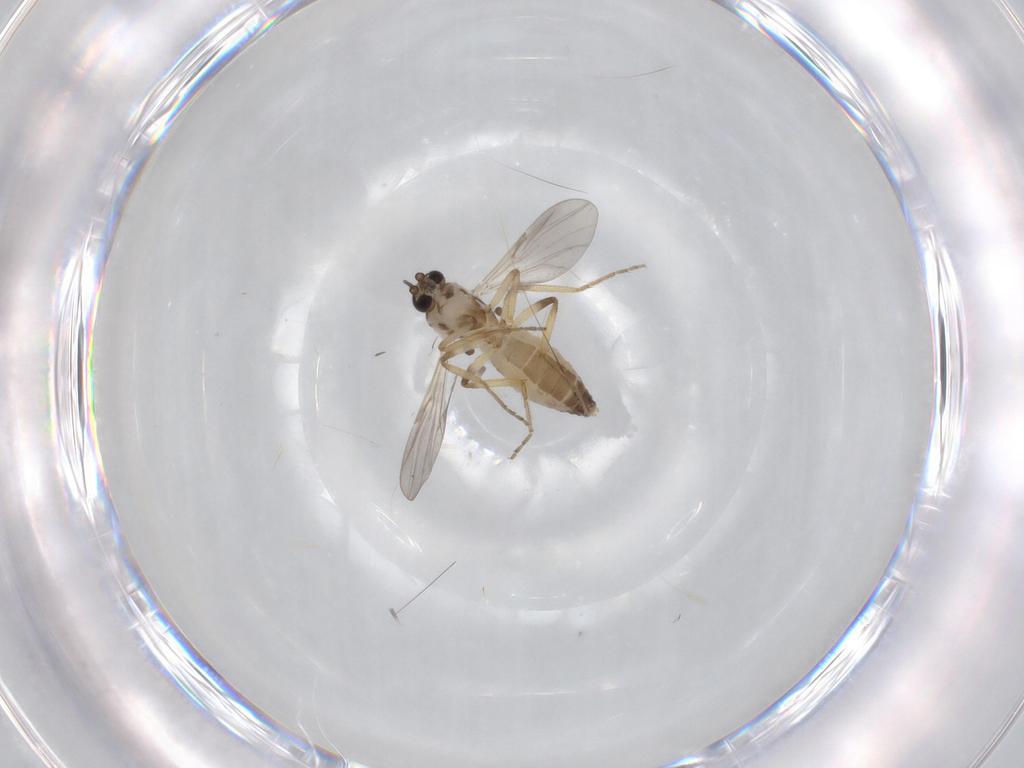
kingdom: Animalia
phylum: Arthropoda
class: Insecta
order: Diptera
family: Ceratopogonidae
